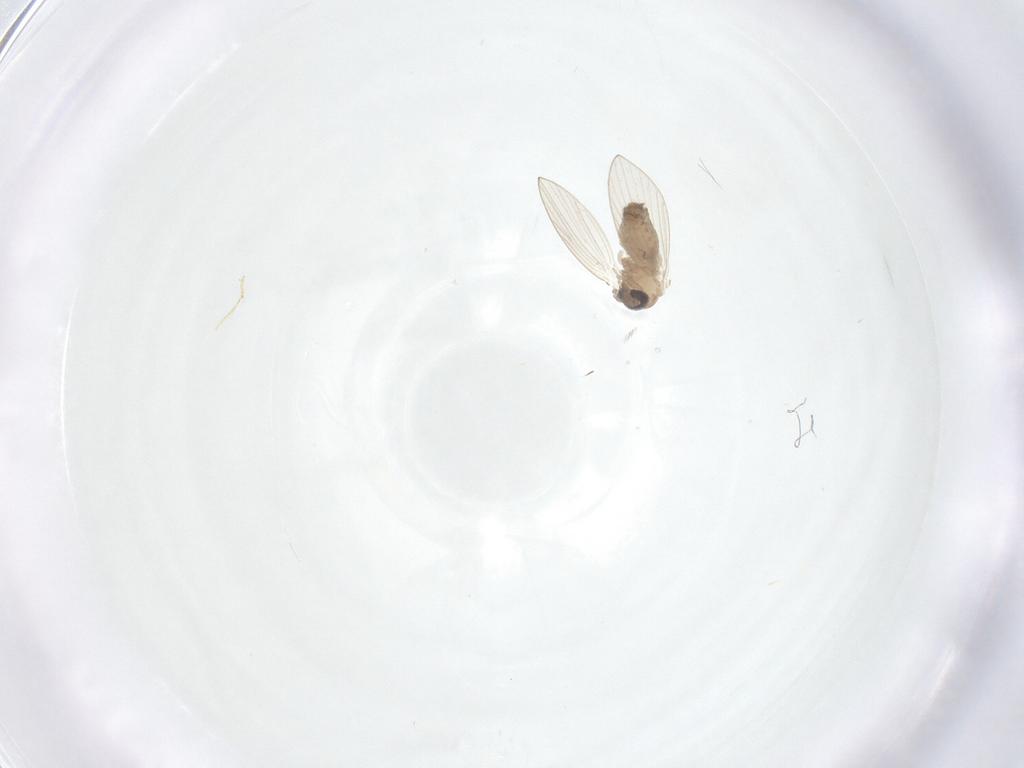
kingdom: Animalia
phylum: Arthropoda
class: Insecta
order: Diptera
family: Psychodidae
